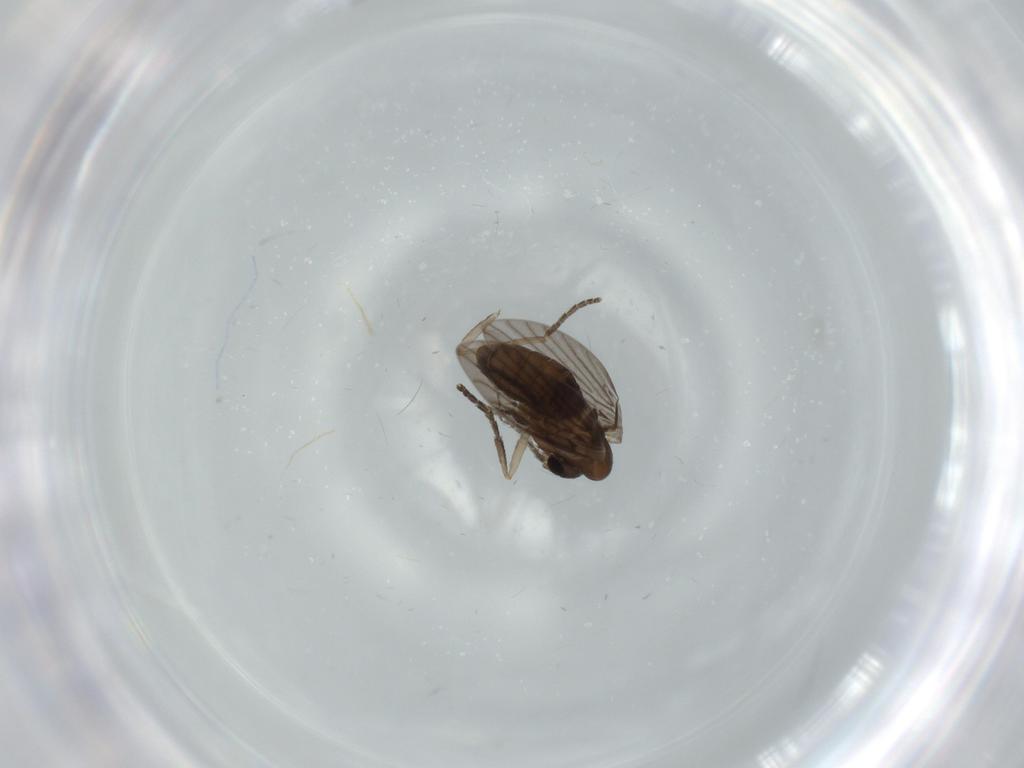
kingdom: Animalia
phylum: Arthropoda
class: Insecta
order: Diptera
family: Psychodidae
